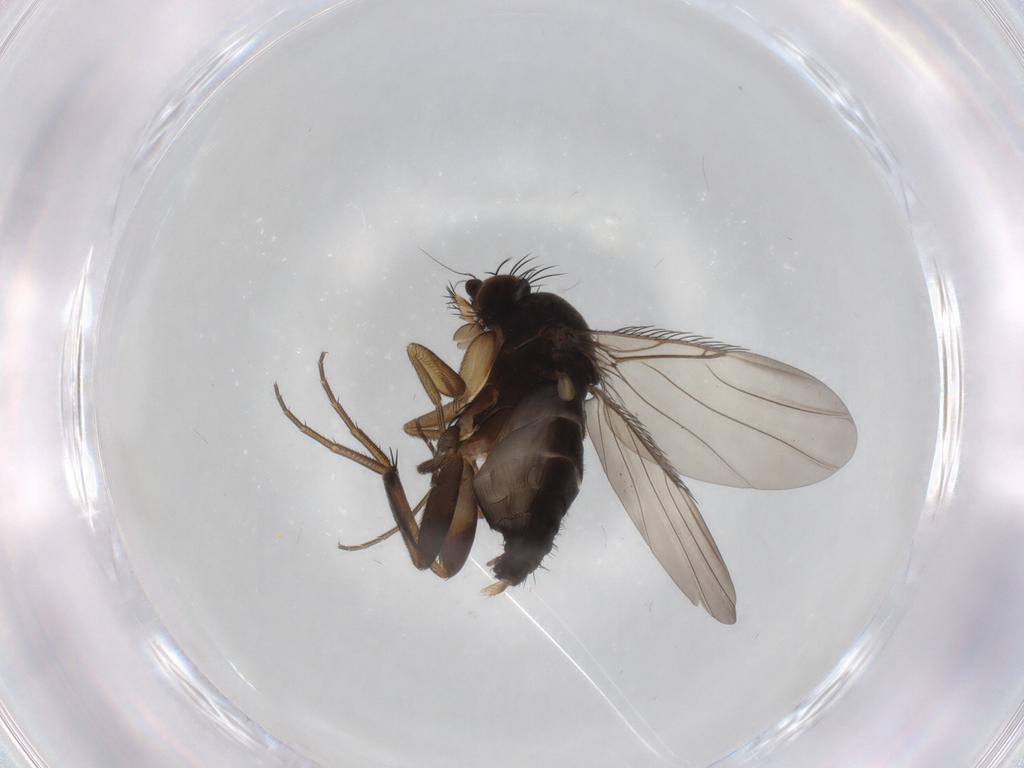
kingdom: Animalia
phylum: Arthropoda
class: Insecta
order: Diptera
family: Phoridae
